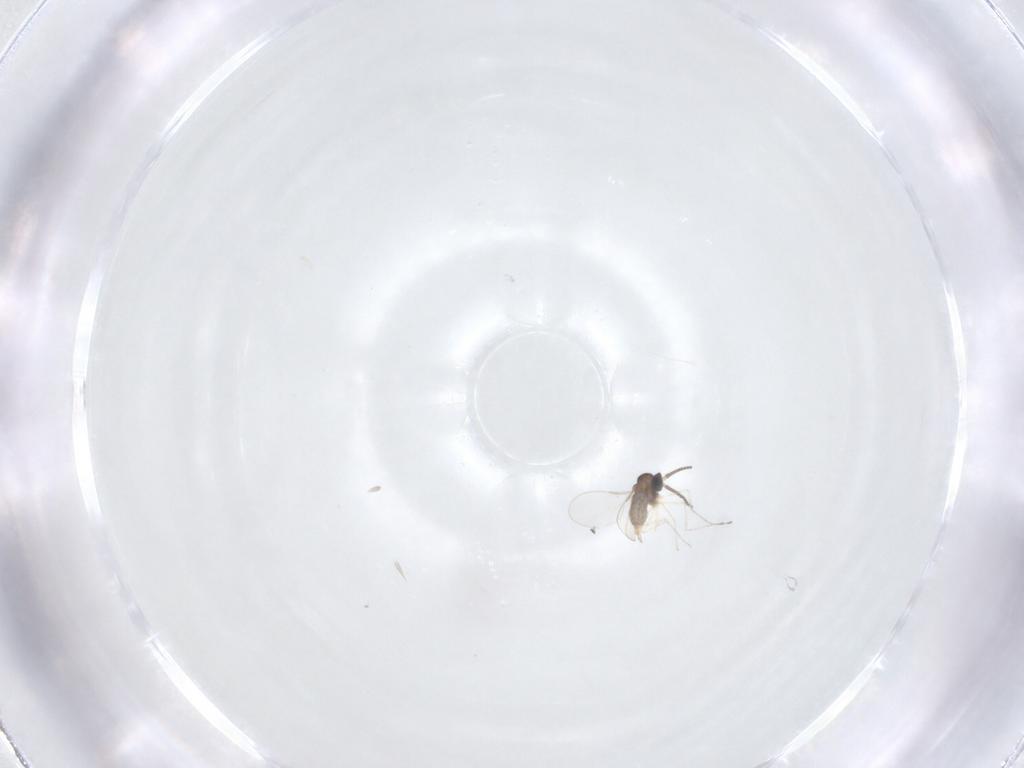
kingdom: Animalia
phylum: Arthropoda
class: Insecta
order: Diptera
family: Cecidomyiidae
